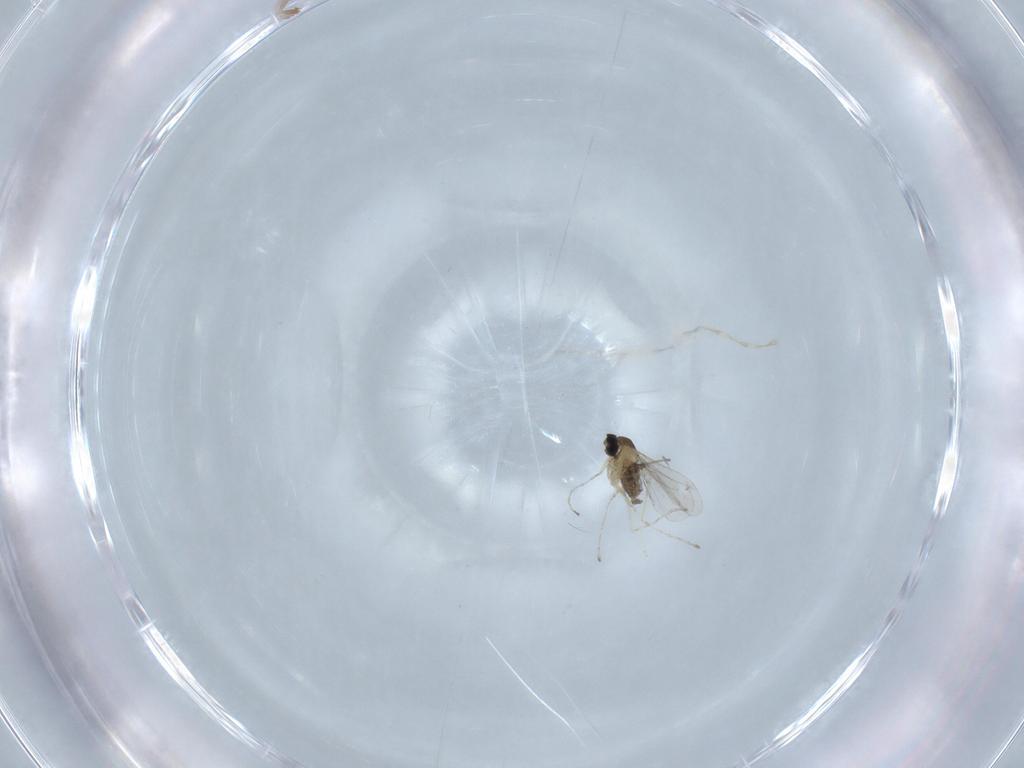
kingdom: Animalia
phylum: Arthropoda
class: Insecta
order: Diptera
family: Cecidomyiidae
